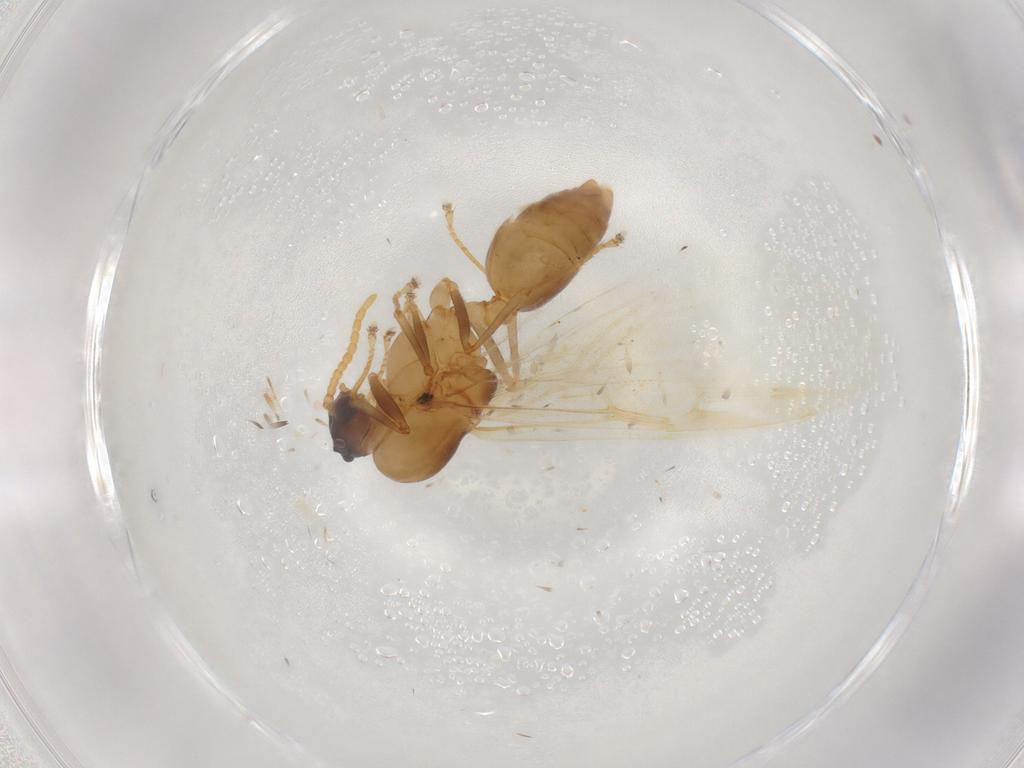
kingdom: Animalia
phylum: Arthropoda
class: Insecta
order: Hymenoptera
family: Formicidae
